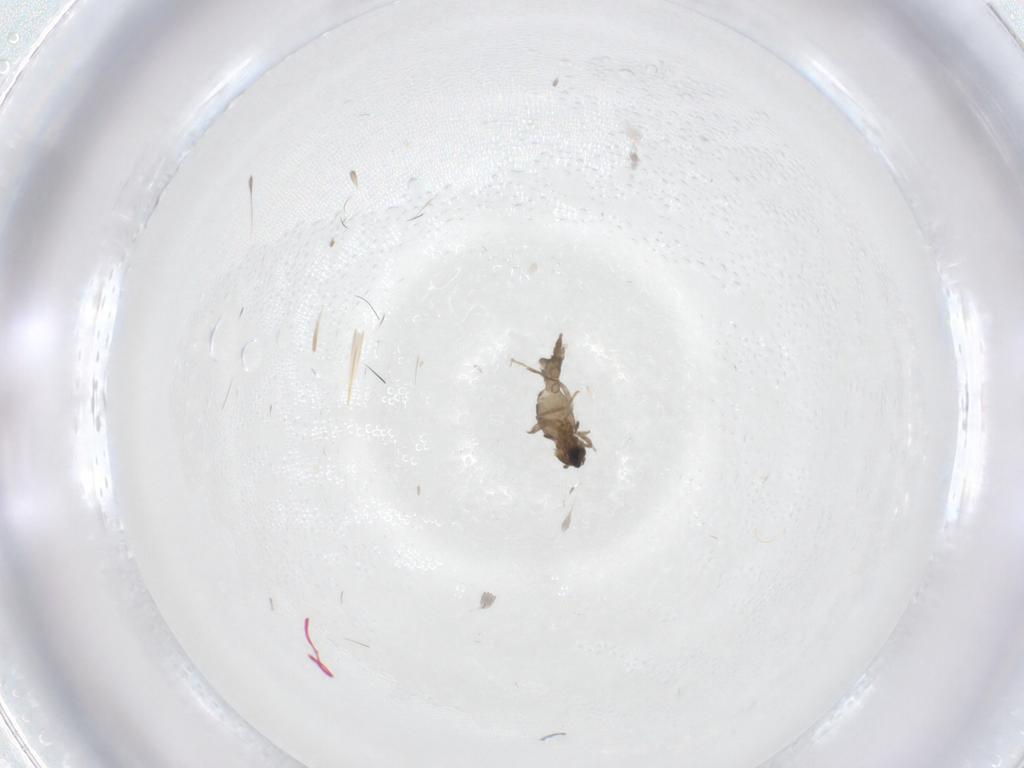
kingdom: Animalia
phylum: Arthropoda
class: Insecta
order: Diptera
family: Cecidomyiidae
